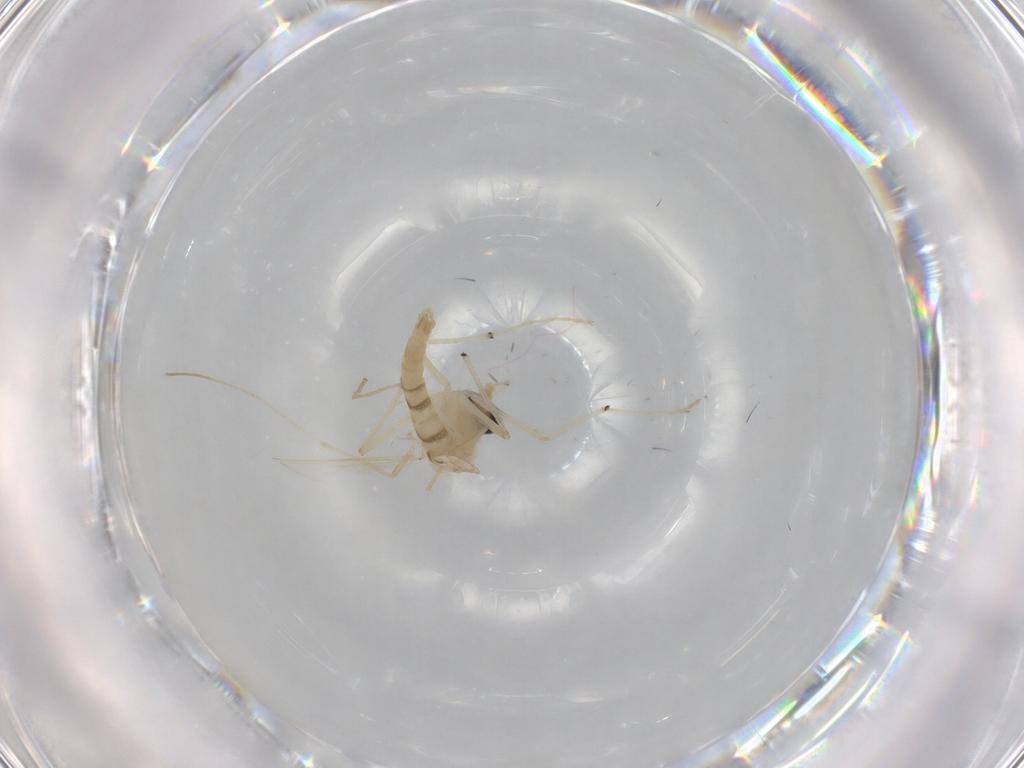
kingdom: Animalia
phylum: Arthropoda
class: Insecta
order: Diptera
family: Chironomidae
